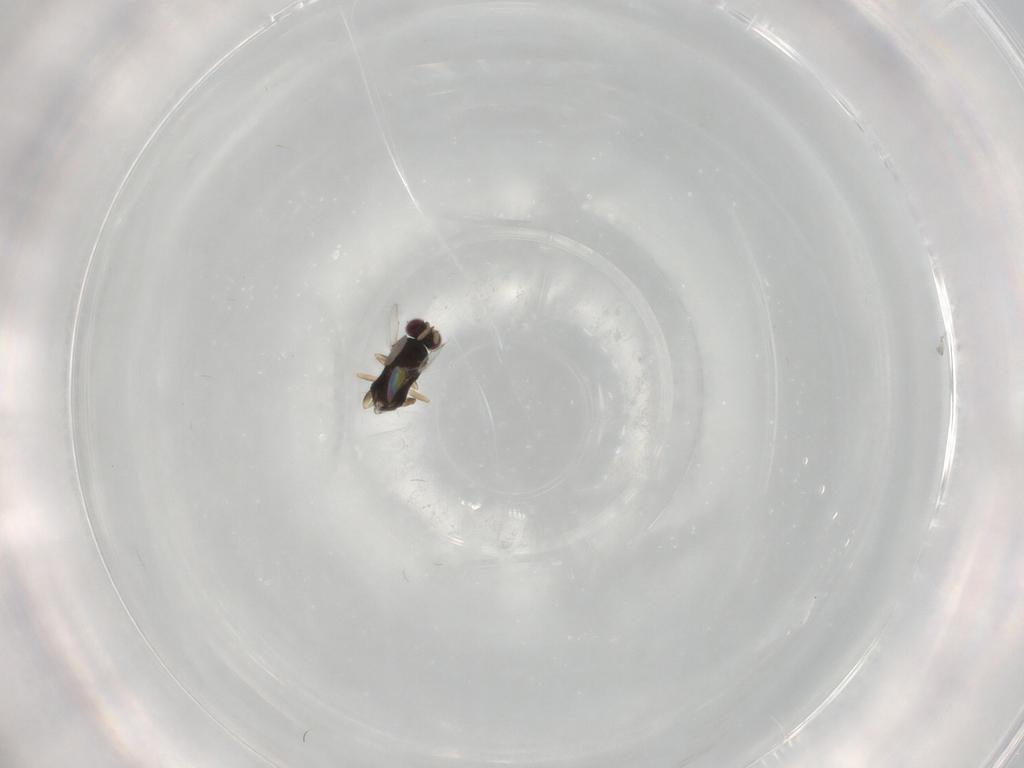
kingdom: Animalia
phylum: Arthropoda
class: Insecta
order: Hymenoptera
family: Aphelinidae
